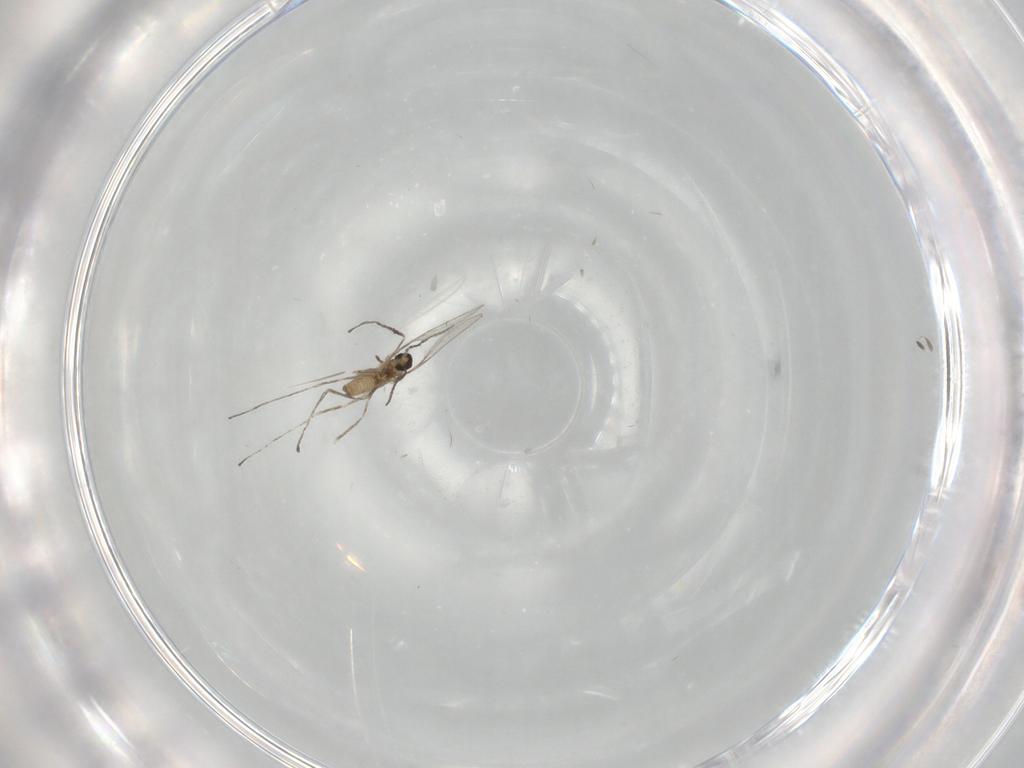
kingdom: Animalia
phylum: Arthropoda
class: Insecta
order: Diptera
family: Cecidomyiidae
